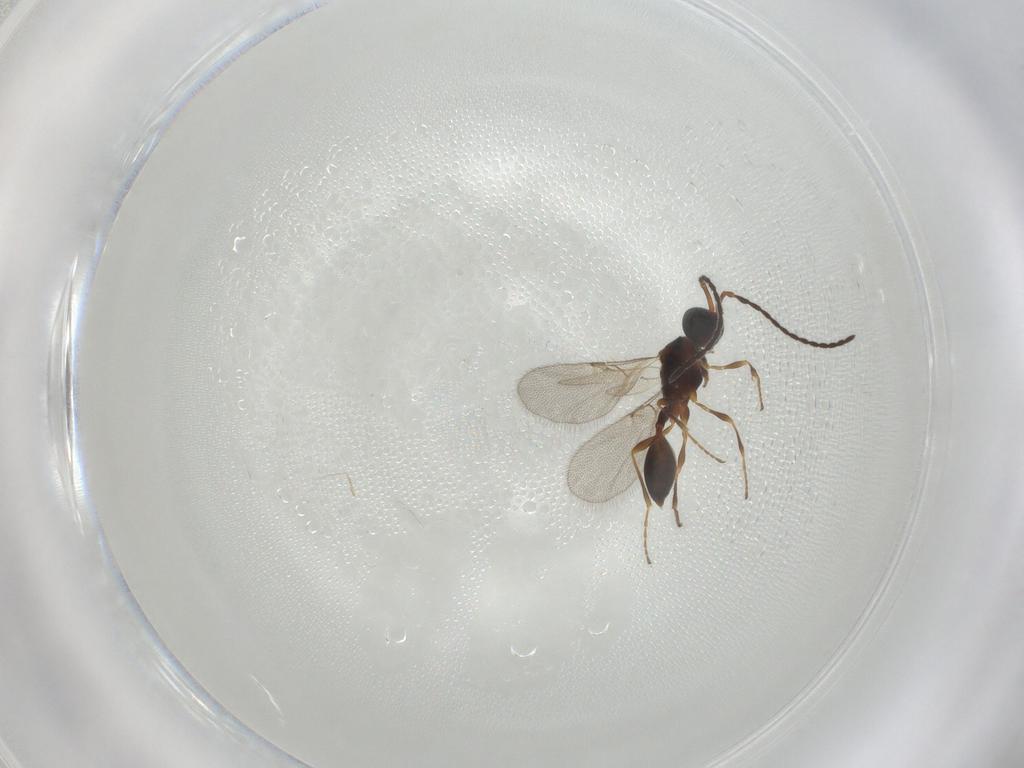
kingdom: Animalia
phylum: Arthropoda
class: Insecta
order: Hymenoptera
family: Diapriidae
